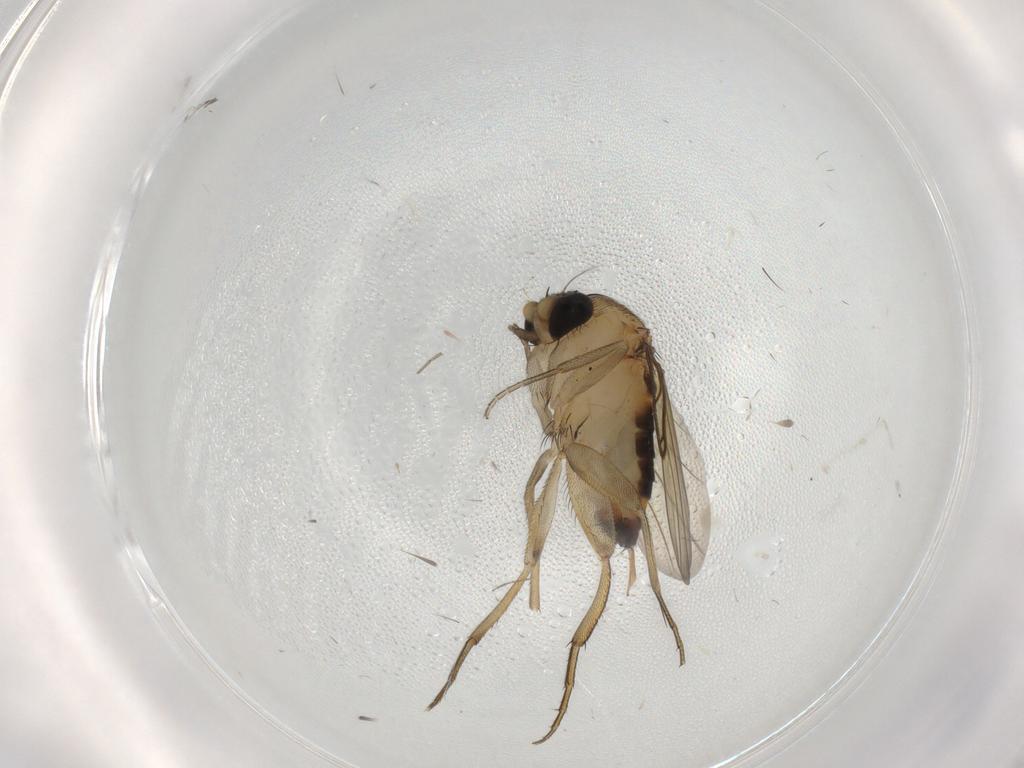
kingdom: Animalia
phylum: Arthropoda
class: Insecta
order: Diptera
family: Phoridae
